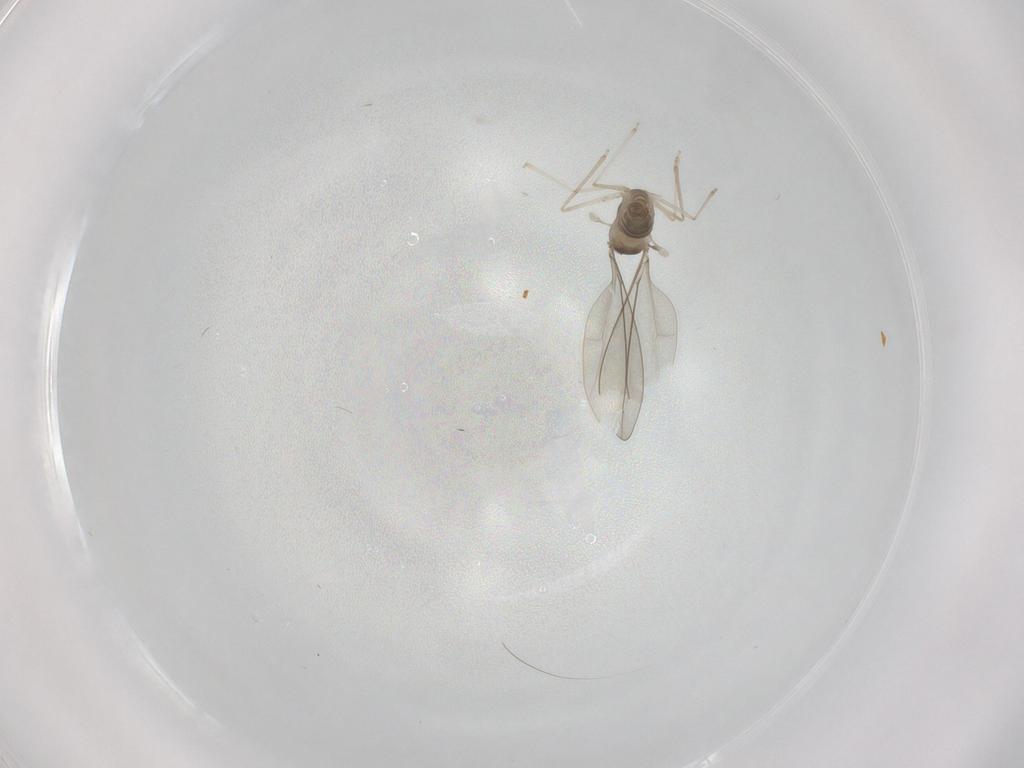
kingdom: Animalia
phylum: Arthropoda
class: Insecta
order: Diptera
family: Cecidomyiidae
